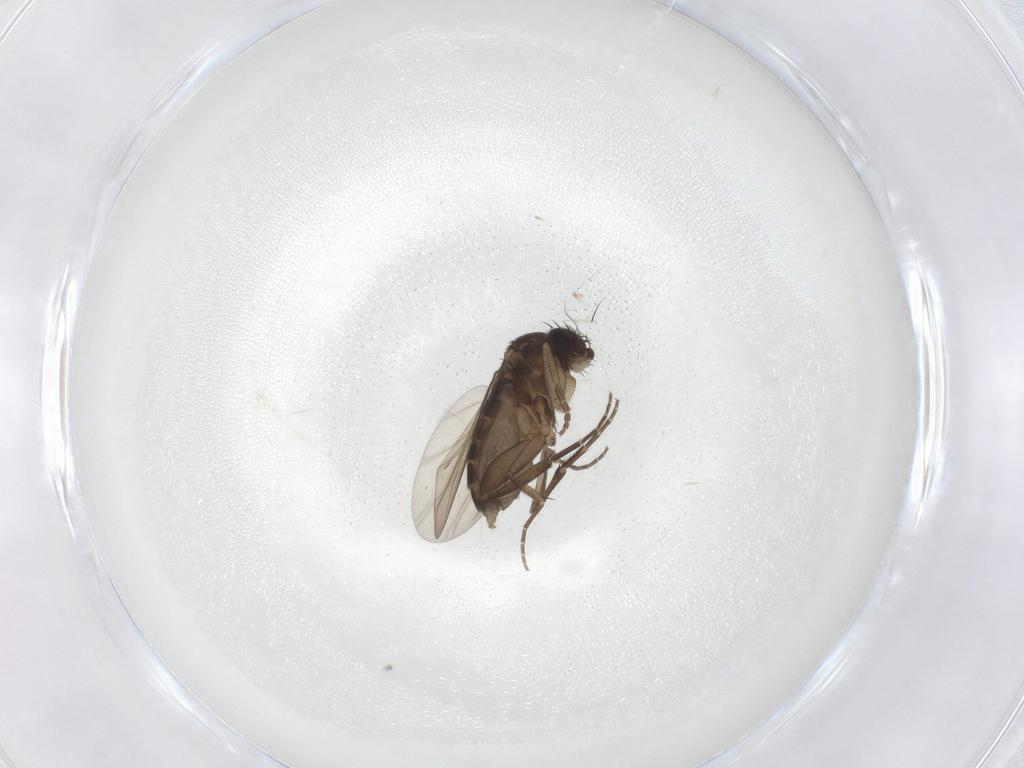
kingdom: Animalia
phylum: Arthropoda
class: Insecta
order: Diptera
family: Phoridae
